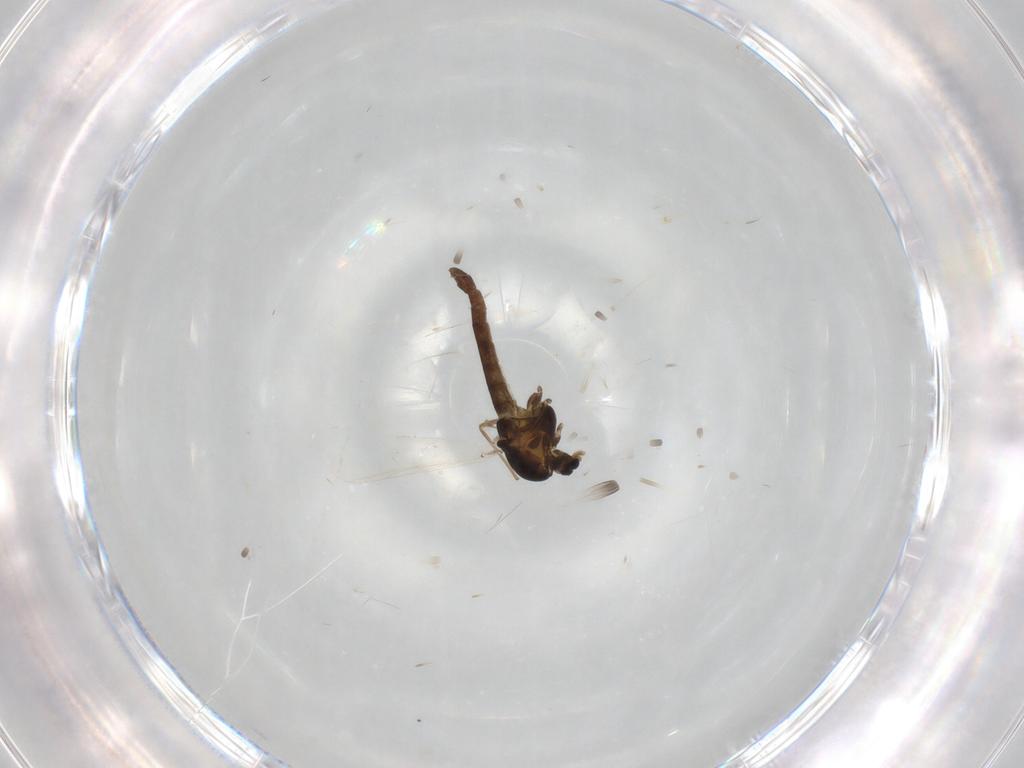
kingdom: Animalia
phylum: Arthropoda
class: Insecta
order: Diptera
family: Chironomidae
